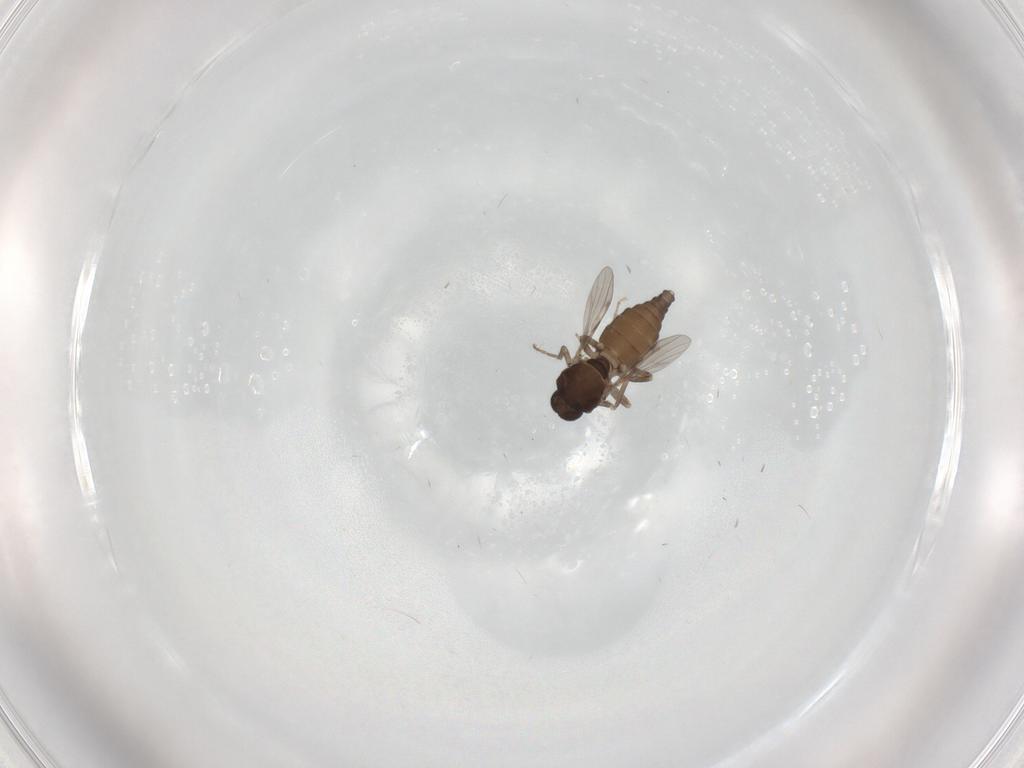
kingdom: Animalia
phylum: Arthropoda
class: Insecta
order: Diptera
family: Ceratopogonidae
